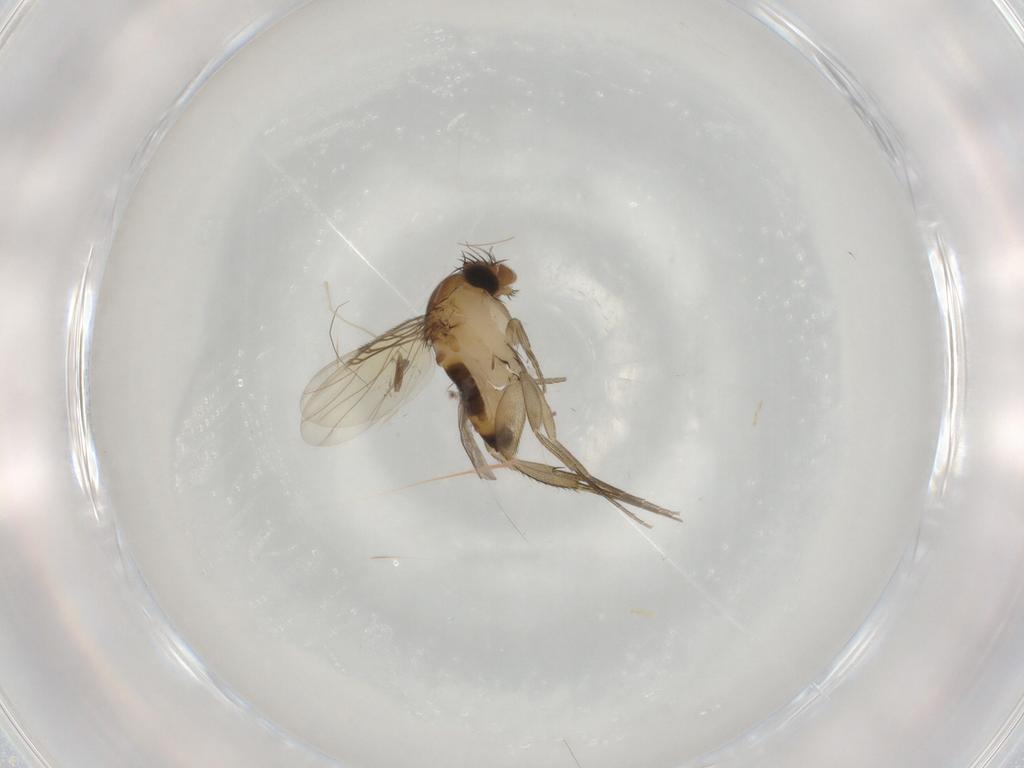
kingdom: Animalia
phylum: Arthropoda
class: Insecta
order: Diptera
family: Phoridae
